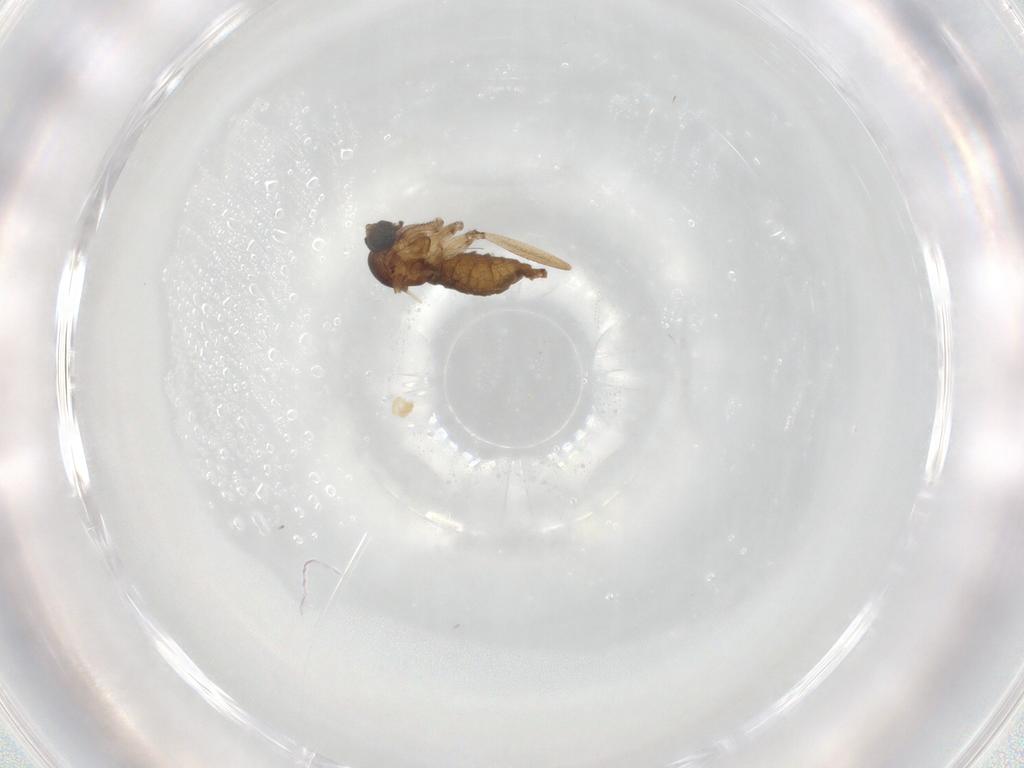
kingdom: Animalia
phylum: Arthropoda
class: Insecta
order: Diptera
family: Sciaridae
